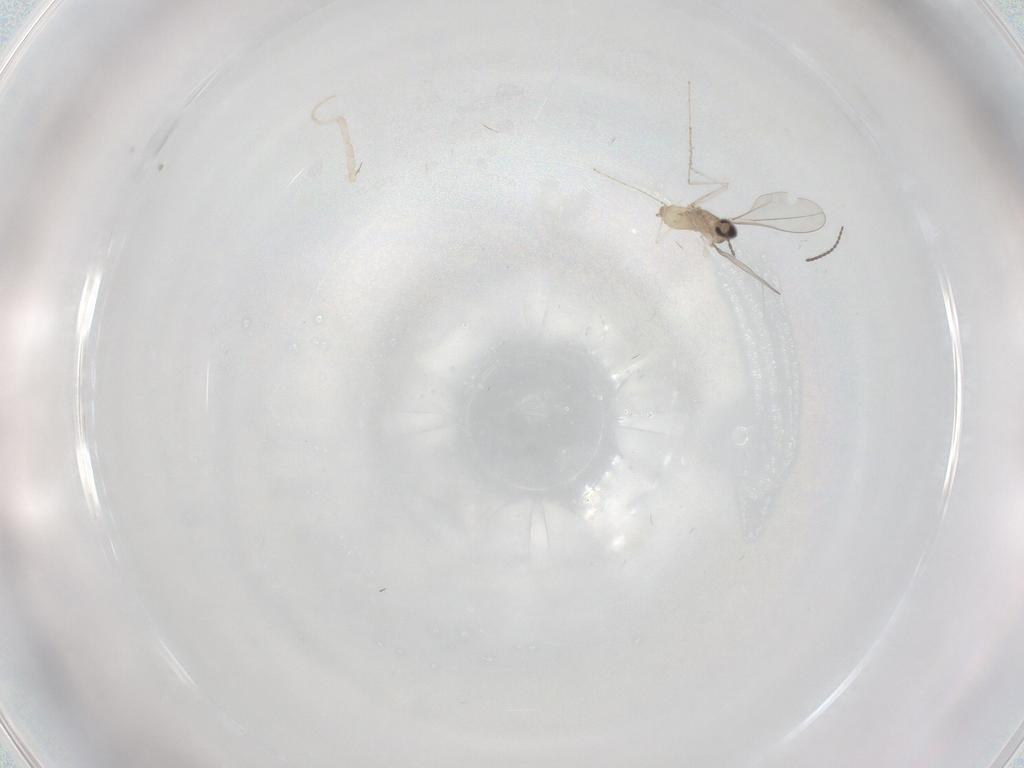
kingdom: Animalia
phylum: Arthropoda
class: Insecta
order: Diptera
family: Cecidomyiidae
